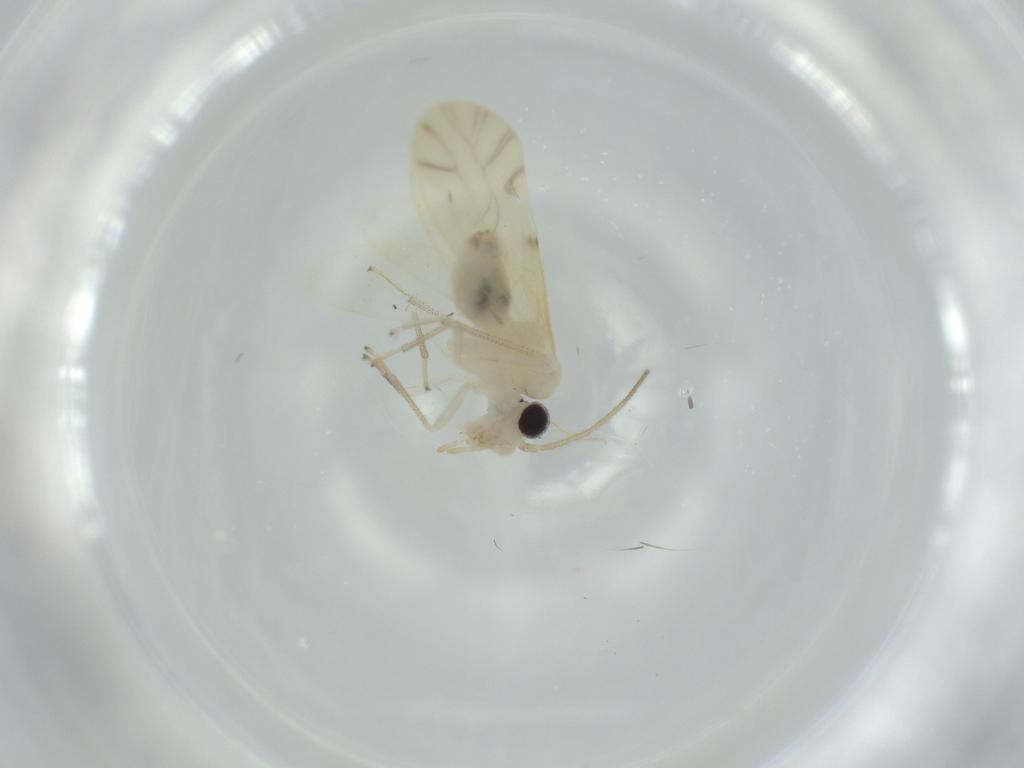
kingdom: Animalia
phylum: Arthropoda
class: Insecta
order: Psocodea
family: Caeciliusidae
